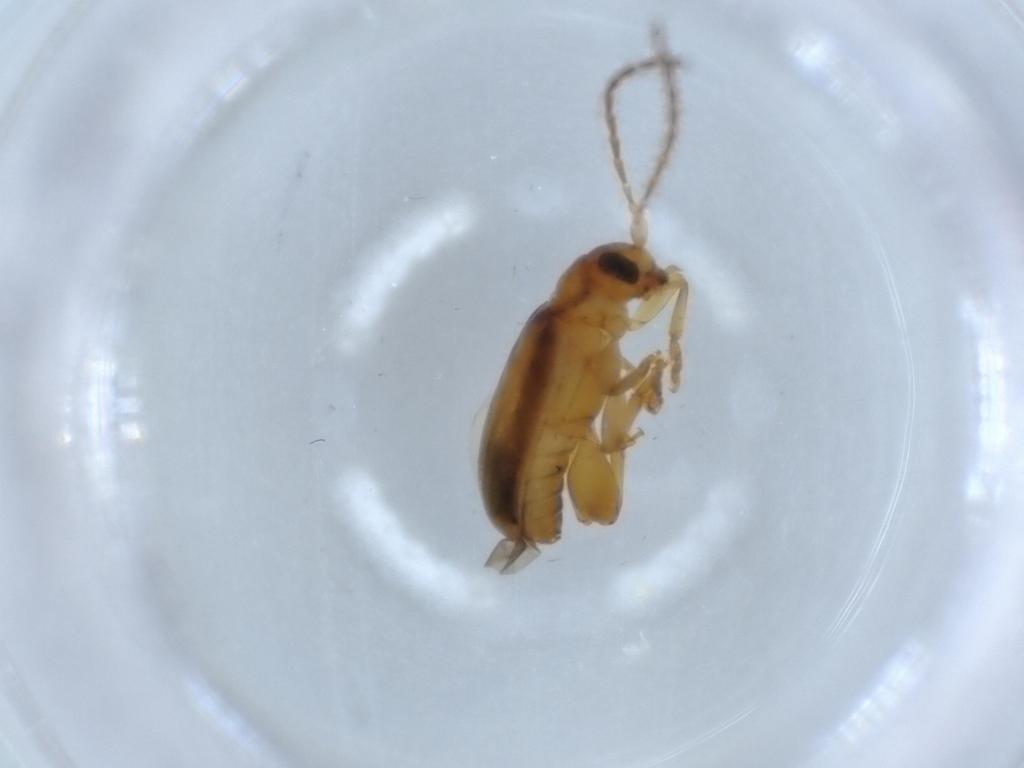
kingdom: Animalia
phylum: Arthropoda
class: Insecta
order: Coleoptera
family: Chrysomelidae
